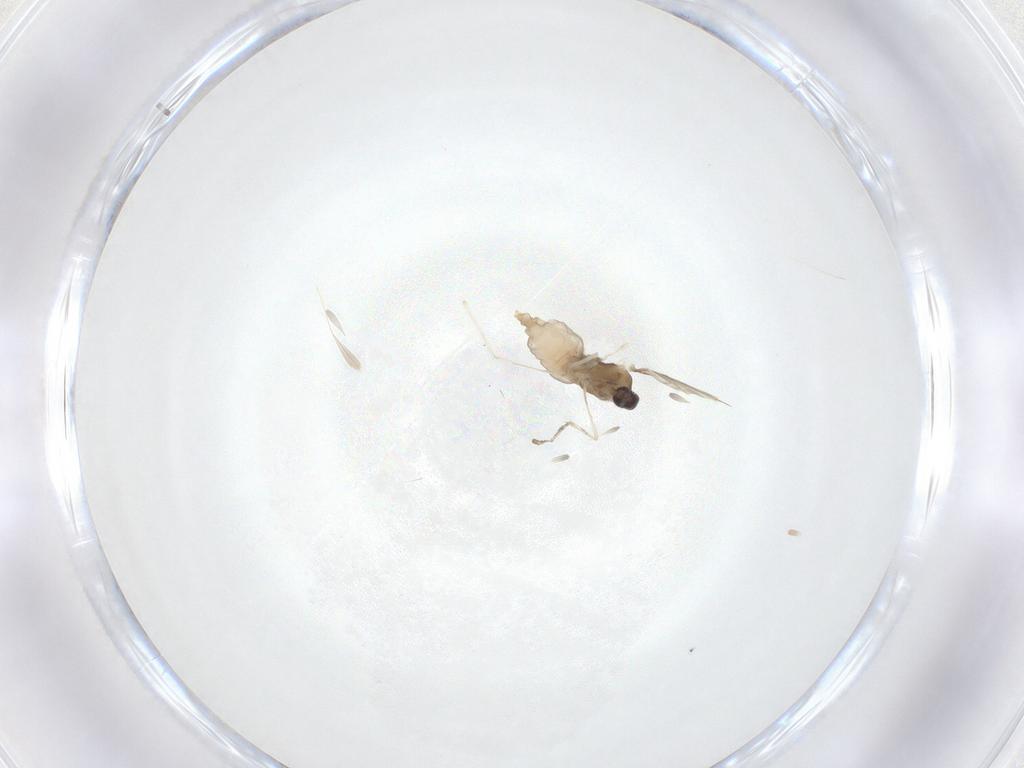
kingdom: Animalia
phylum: Arthropoda
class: Insecta
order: Diptera
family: Cecidomyiidae
